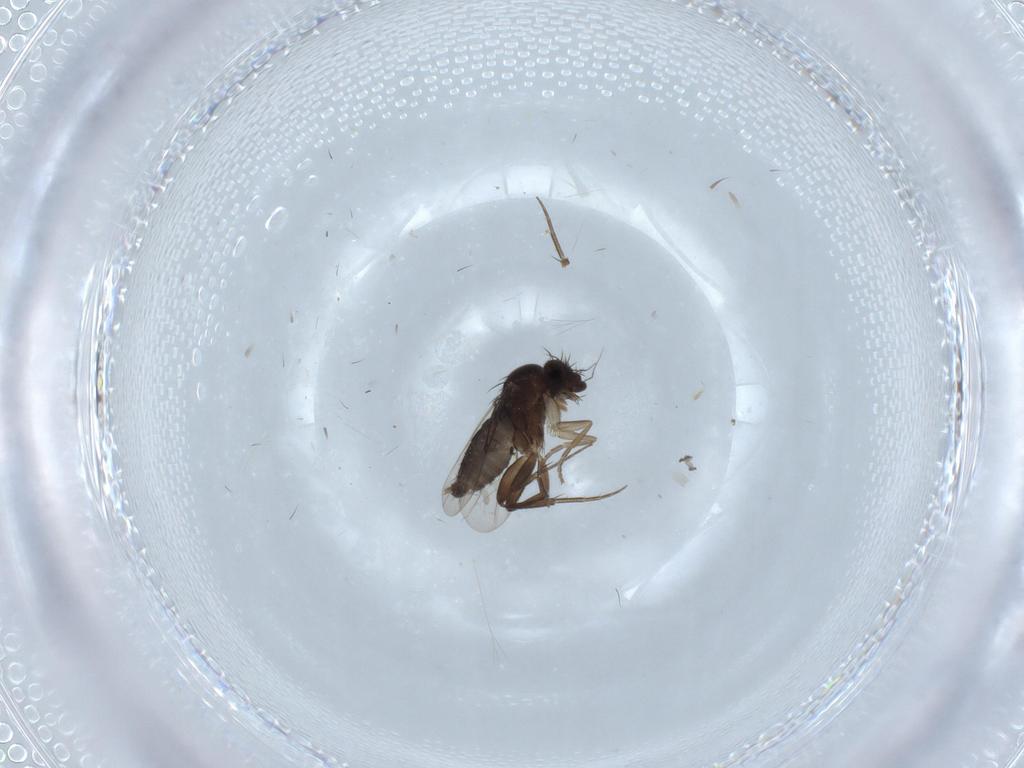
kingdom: Animalia
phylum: Arthropoda
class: Insecta
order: Diptera
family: Phoridae
